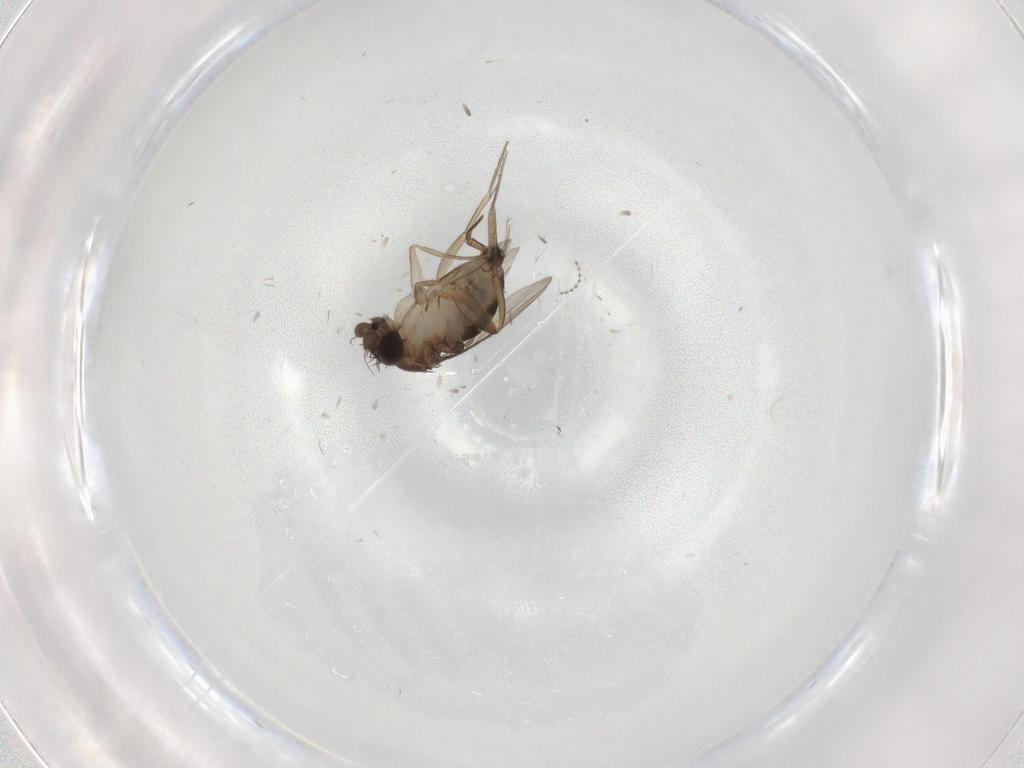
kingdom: Animalia
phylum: Arthropoda
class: Insecta
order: Diptera
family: Phoridae
